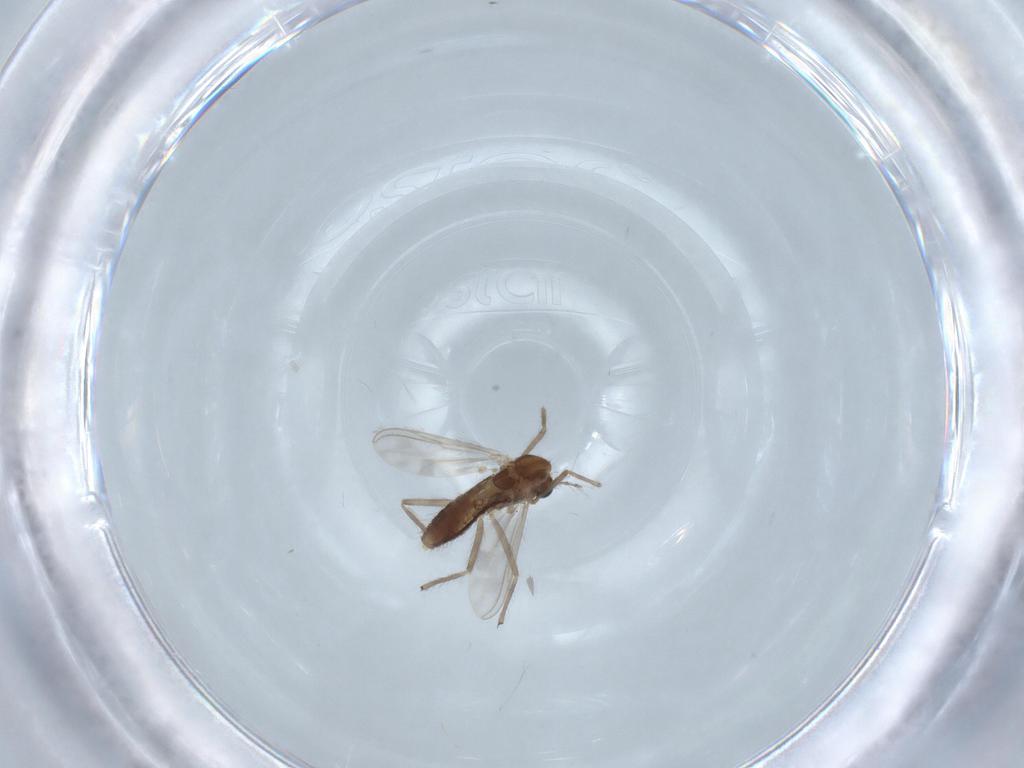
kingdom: Animalia
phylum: Arthropoda
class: Insecta
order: Diptera
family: Chironomidae
